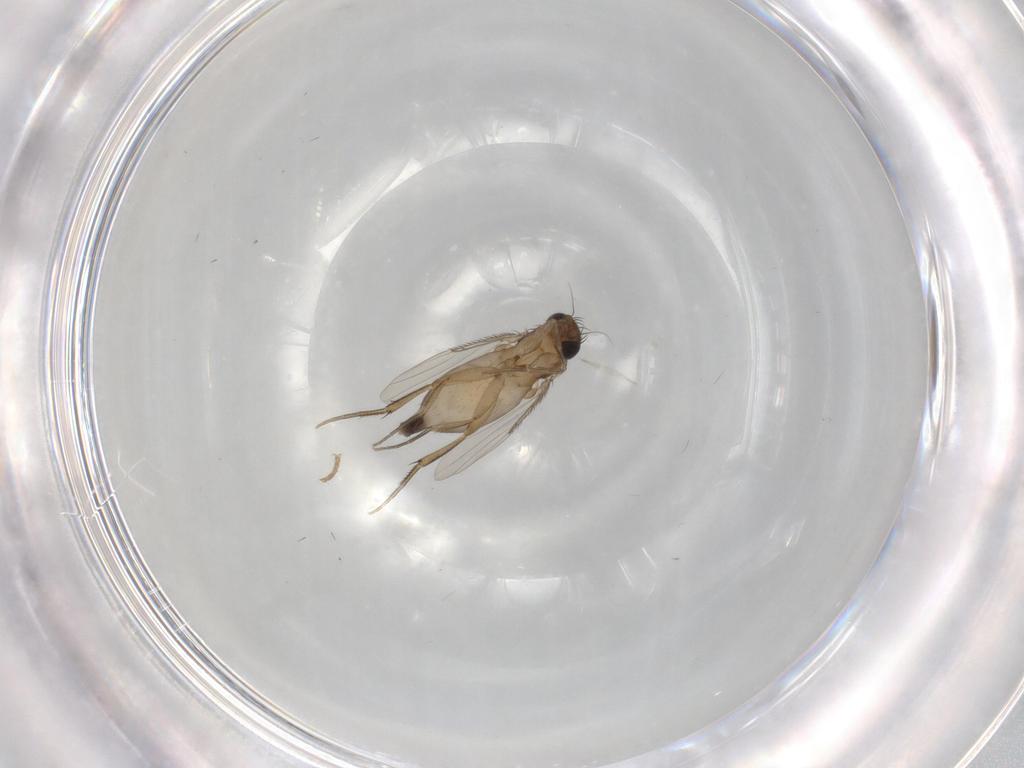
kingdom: Animalia
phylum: Arthropoda
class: Insecta
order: Diptera
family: Phoridae
